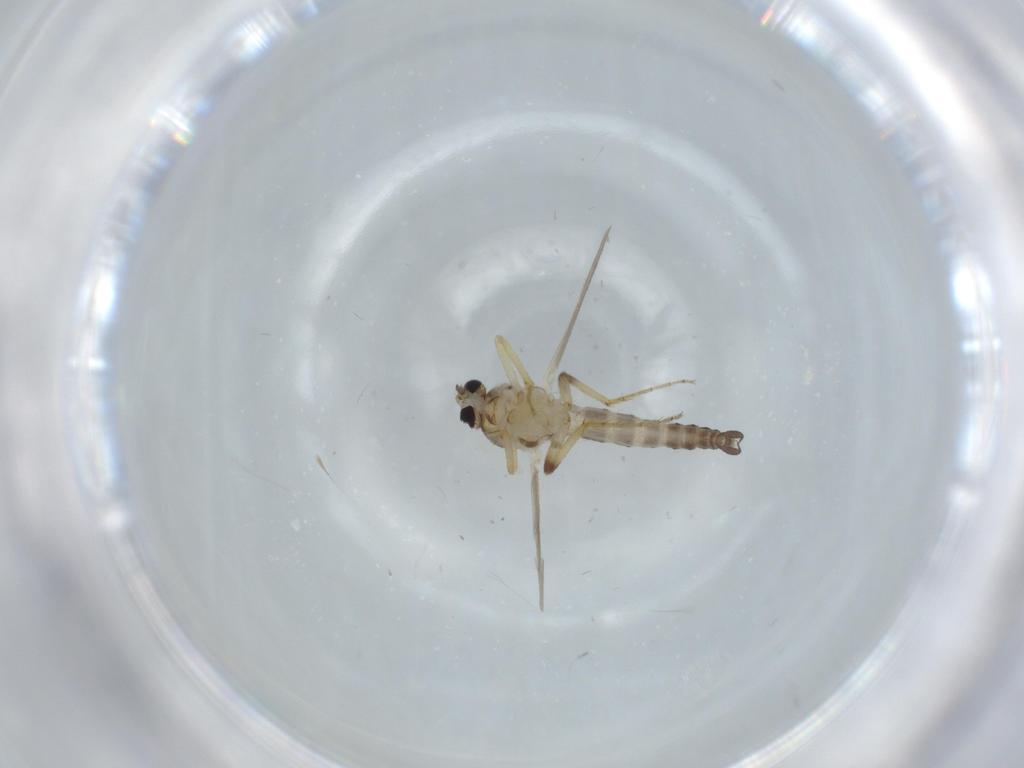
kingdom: Animalia
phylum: Arthropoda
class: Insecta
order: Diptera
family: Ceratopogonidae
